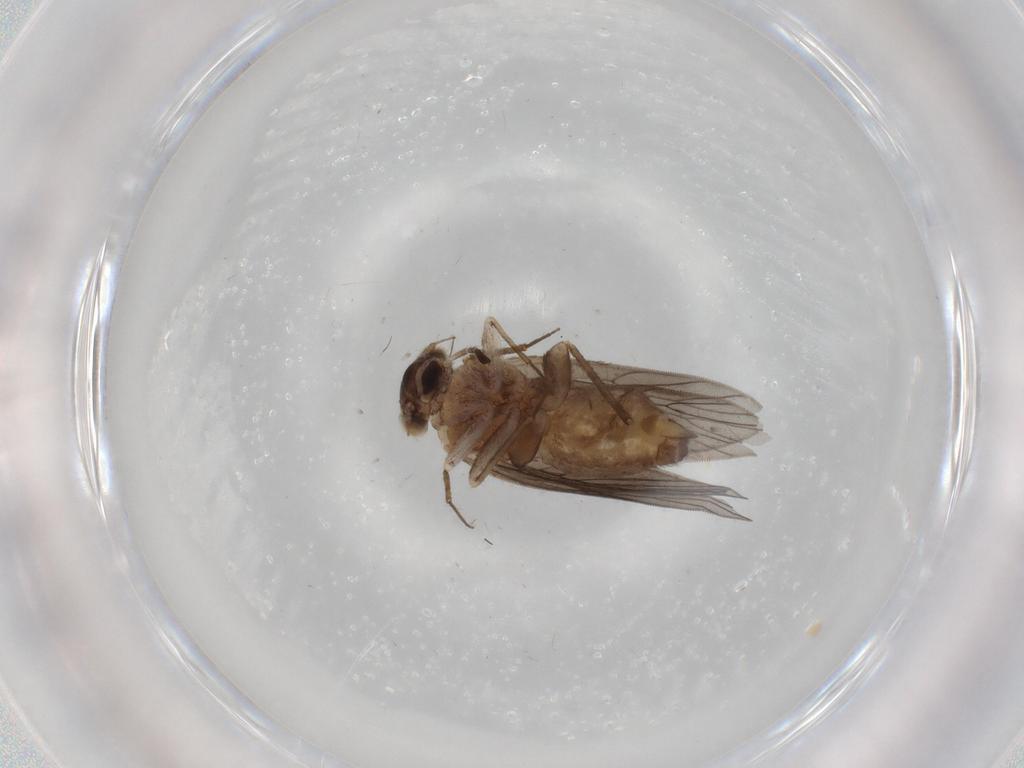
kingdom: Animalia
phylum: Arthropoda
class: Insecta
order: Psocodea
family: Lepidopsocidae
